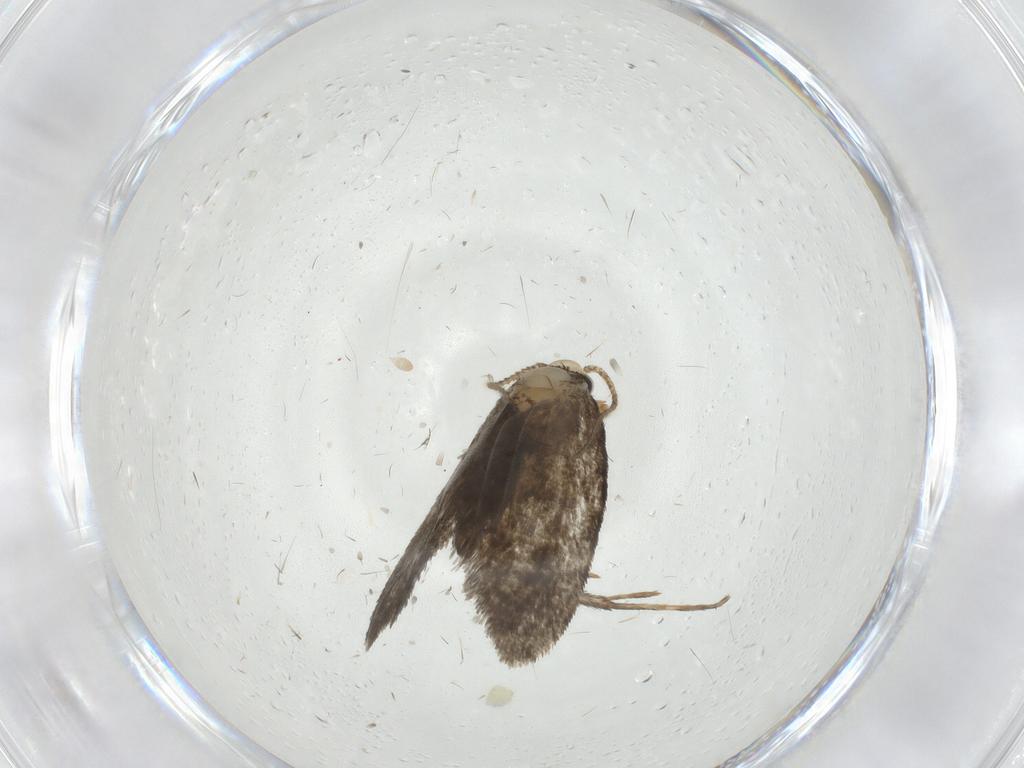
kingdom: Animalia
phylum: Arthropoda
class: Insecta
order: Lepidoptera
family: Psychidae
